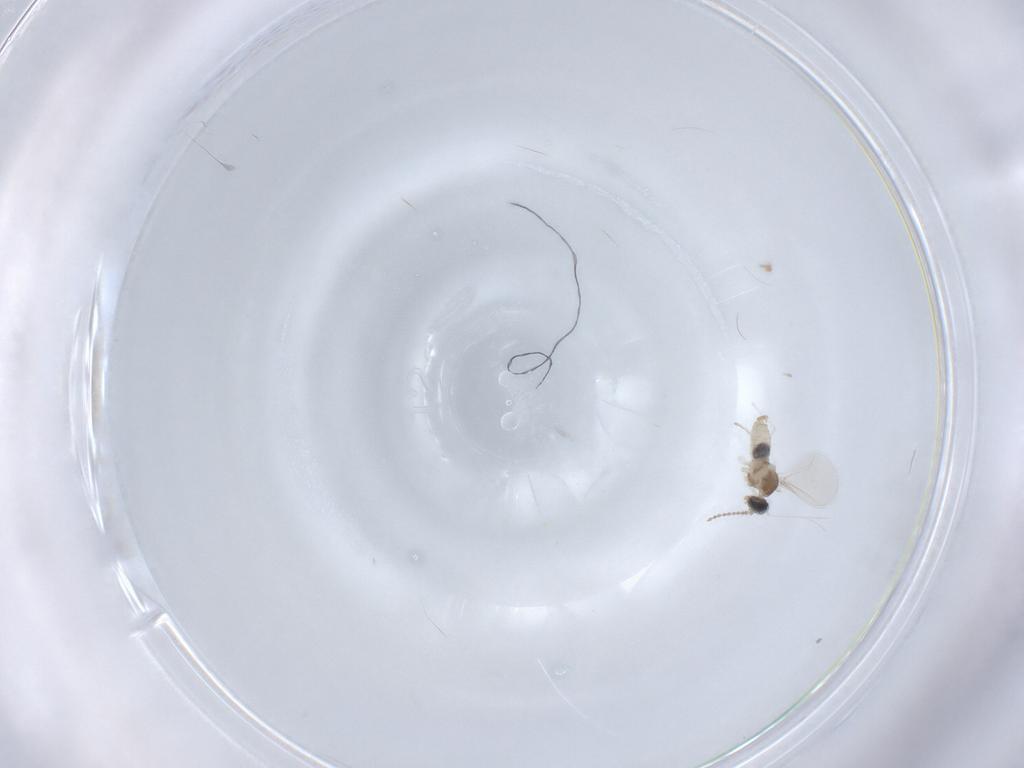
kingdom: Animalia
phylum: Arthropoda
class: Insecta
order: Diptera
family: Cecidomyiidae
